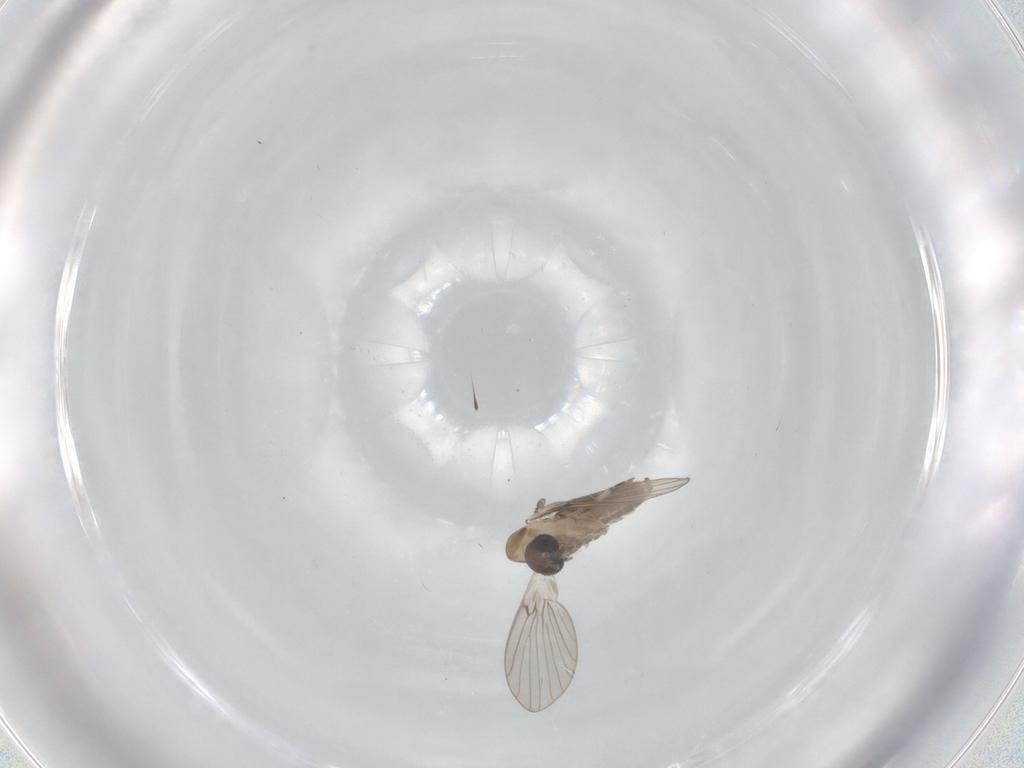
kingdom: Animalia
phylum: Arthropoda
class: Insecta
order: Diptera
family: Ceratopogonidae
